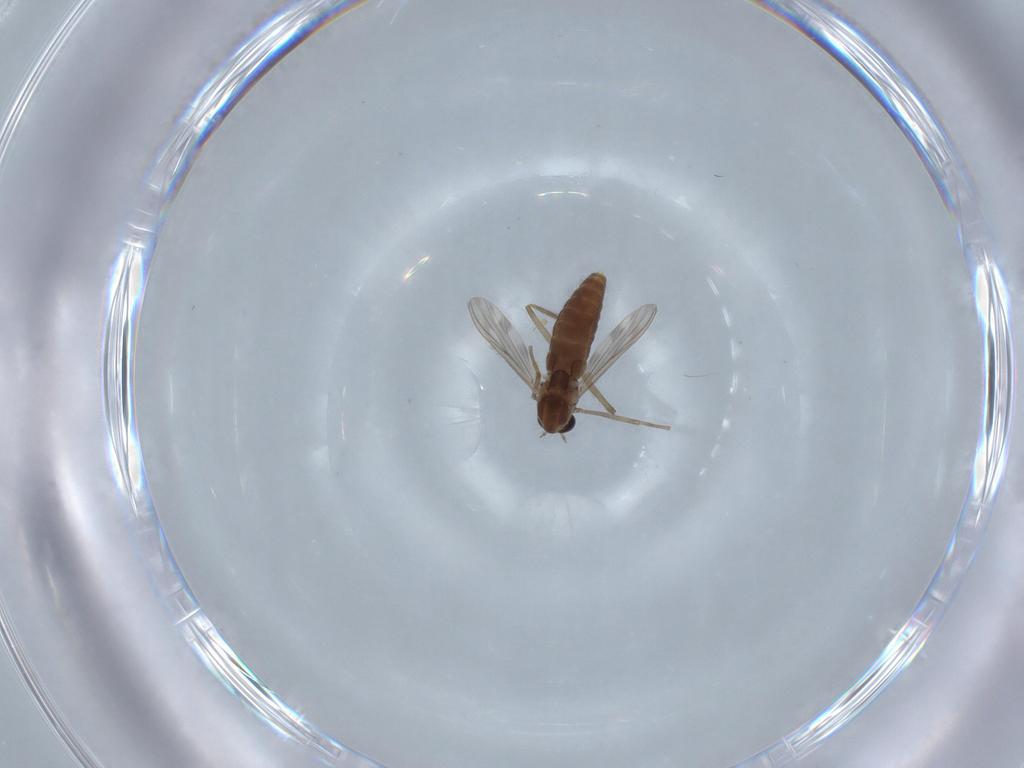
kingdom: Animalia
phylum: Arthropoda
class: Insecta
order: Diptera
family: Chironomidae
